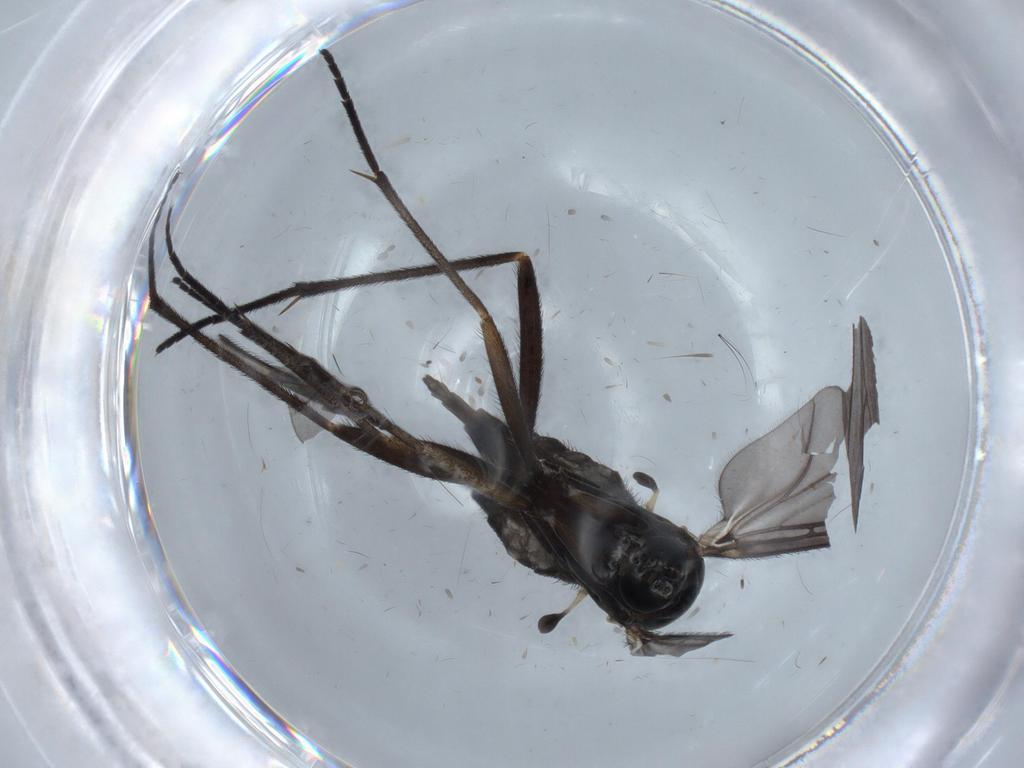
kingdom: Animalia
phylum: Arthropoda
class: Insecta
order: Diptera
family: Sciaridae
